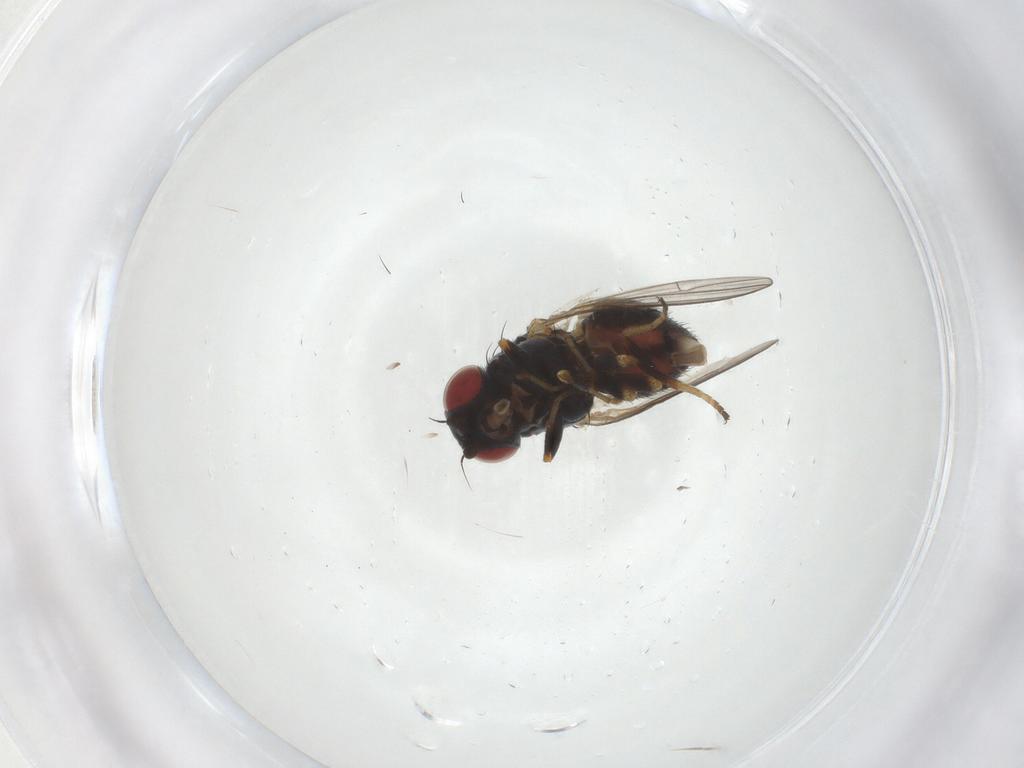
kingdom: Animalia
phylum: Arthropoda
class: Insecta
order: Diptera
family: Chamaemyiidae
